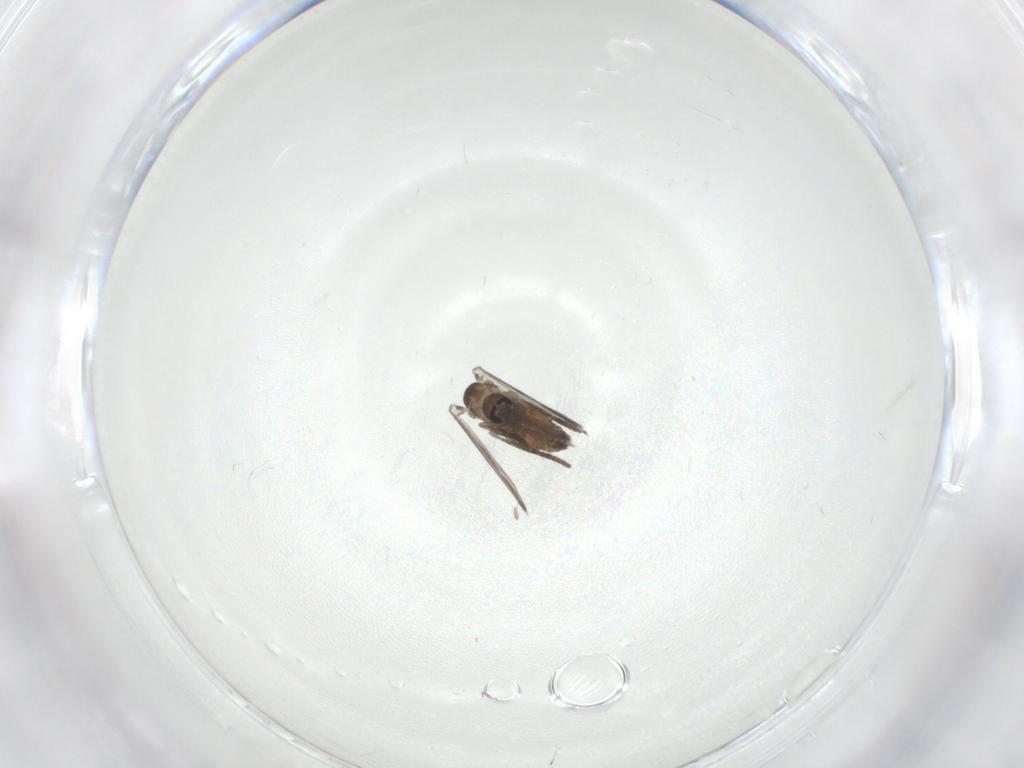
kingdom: Animalia
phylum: Arthropoda
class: Insecta
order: Diptera
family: Psychodidae
